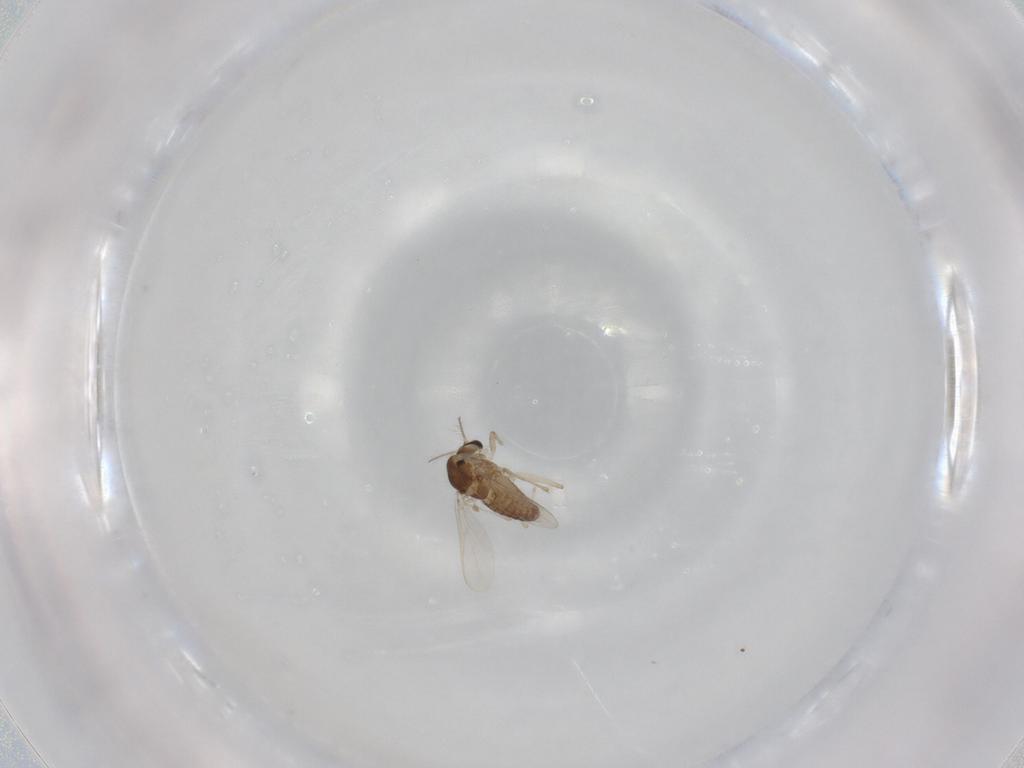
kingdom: Animalia
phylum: Arthropoda
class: Insecta
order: Diptera
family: Chironomidae
